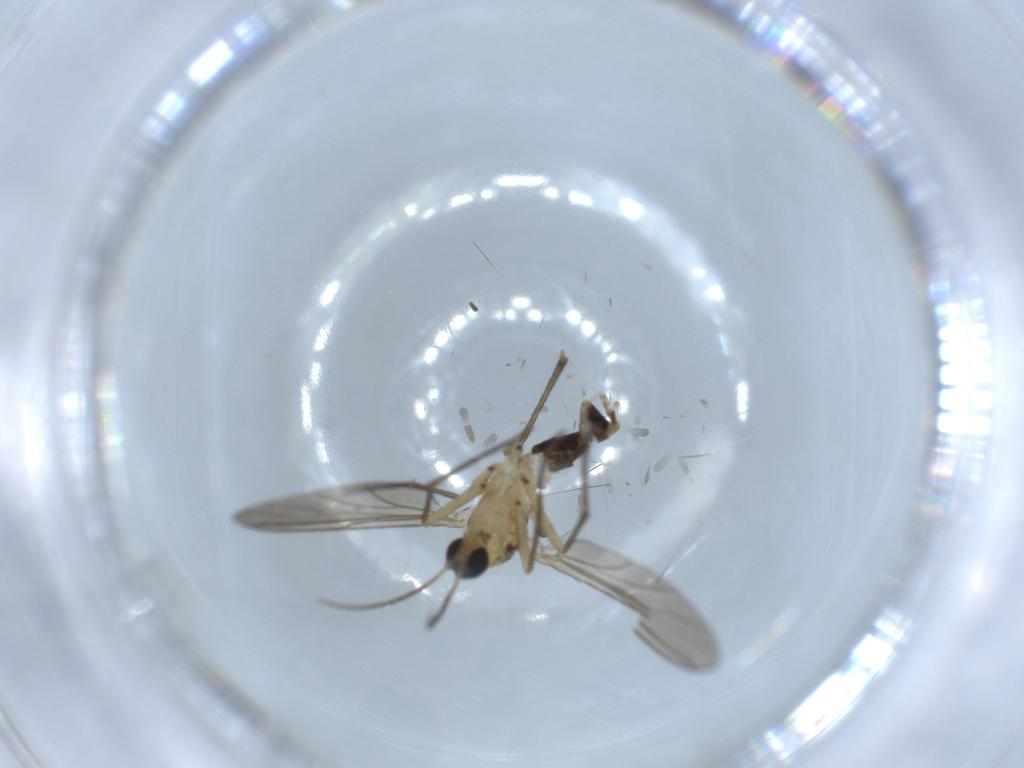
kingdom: Animalia
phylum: Arthropoda
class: Insecta
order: Diptera
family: Sciaridae
